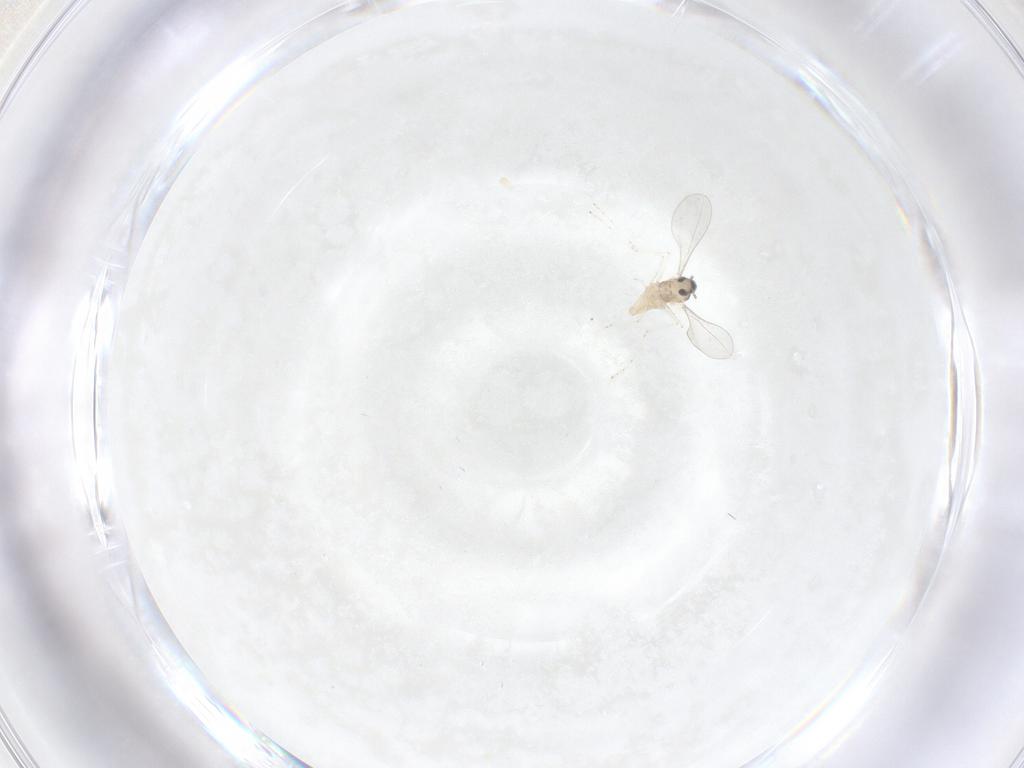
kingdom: Animalia
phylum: Arthropoda
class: Insecta
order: Diptera
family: Cecidomyiidae
